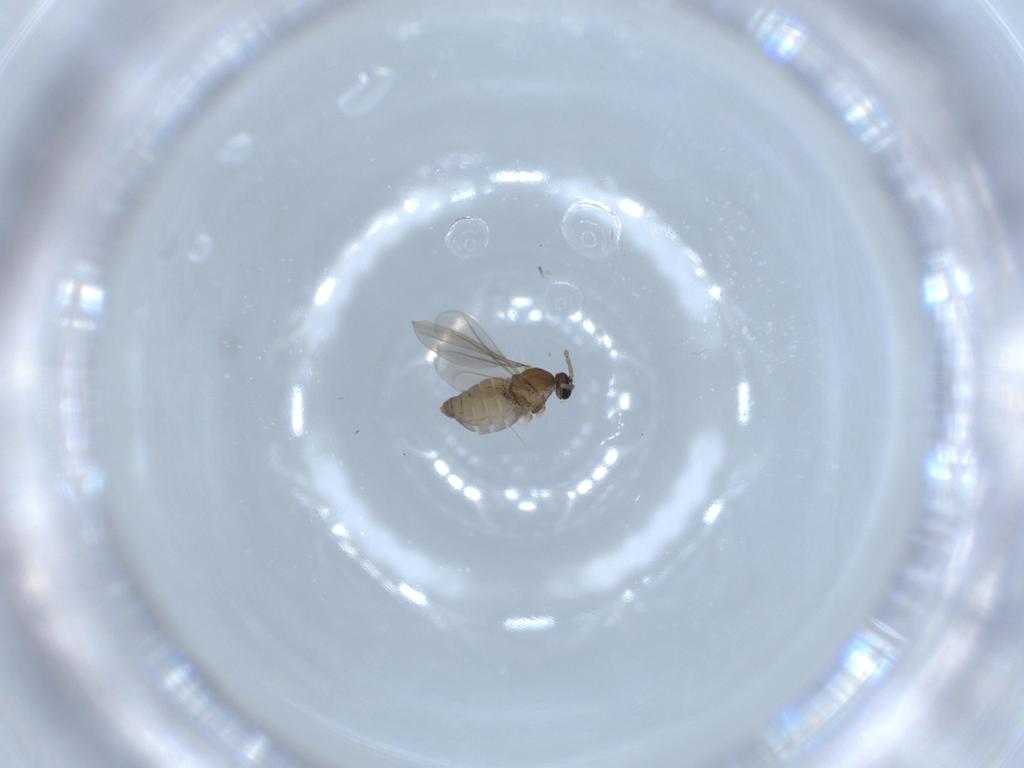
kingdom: Animalia
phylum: Arthropoda
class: Insecta
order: Diptera
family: Cecidomyiidae
